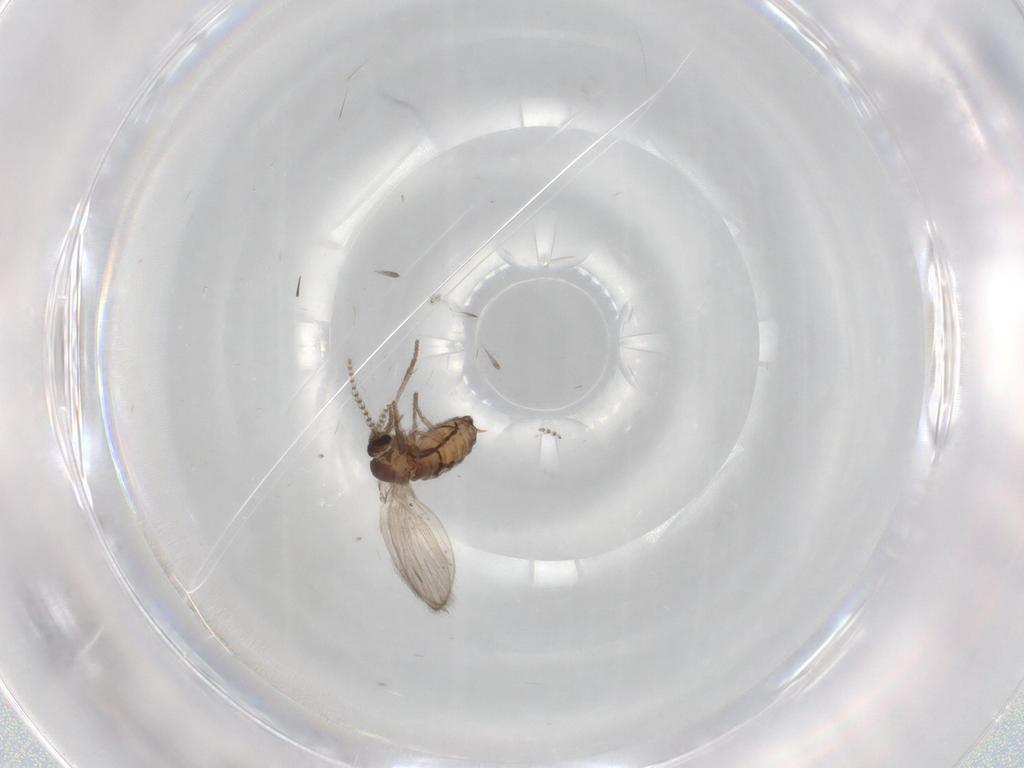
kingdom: Animalia
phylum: Arthropoda
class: Insecta
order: Diptera
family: Psychodidae
